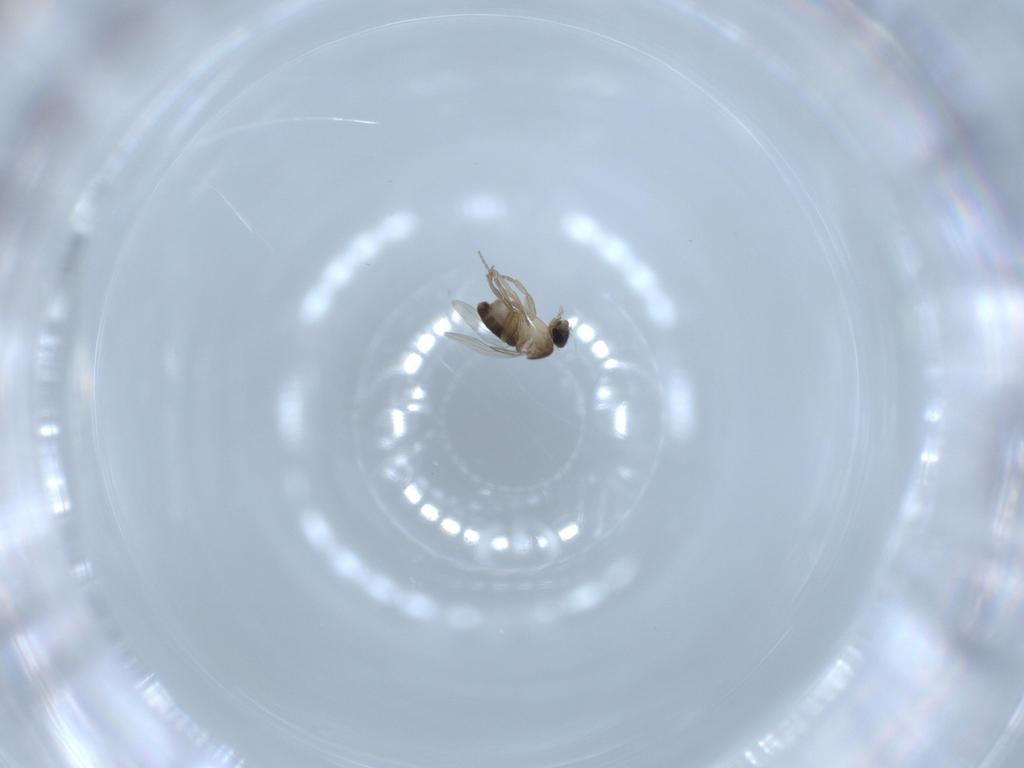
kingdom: Animalia
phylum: Arthropoda
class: Insecta
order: Diptera
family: Phoridae
